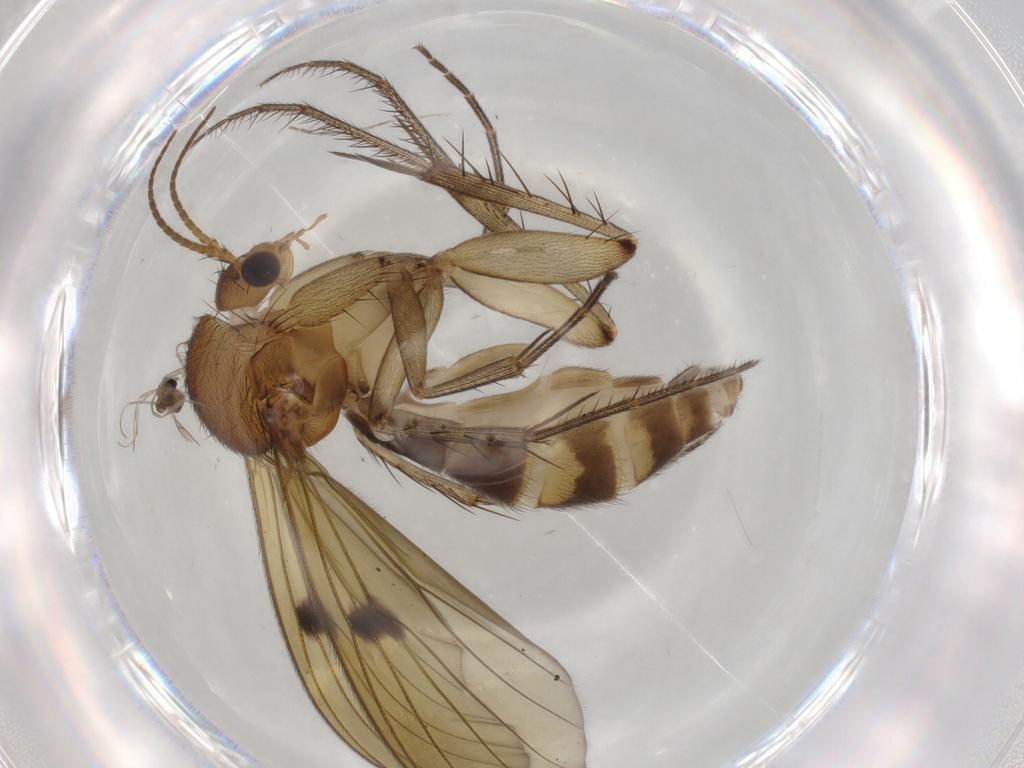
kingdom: Animalia
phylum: Arthropoda
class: Insecta
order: Diptera
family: Mycetophilidae
